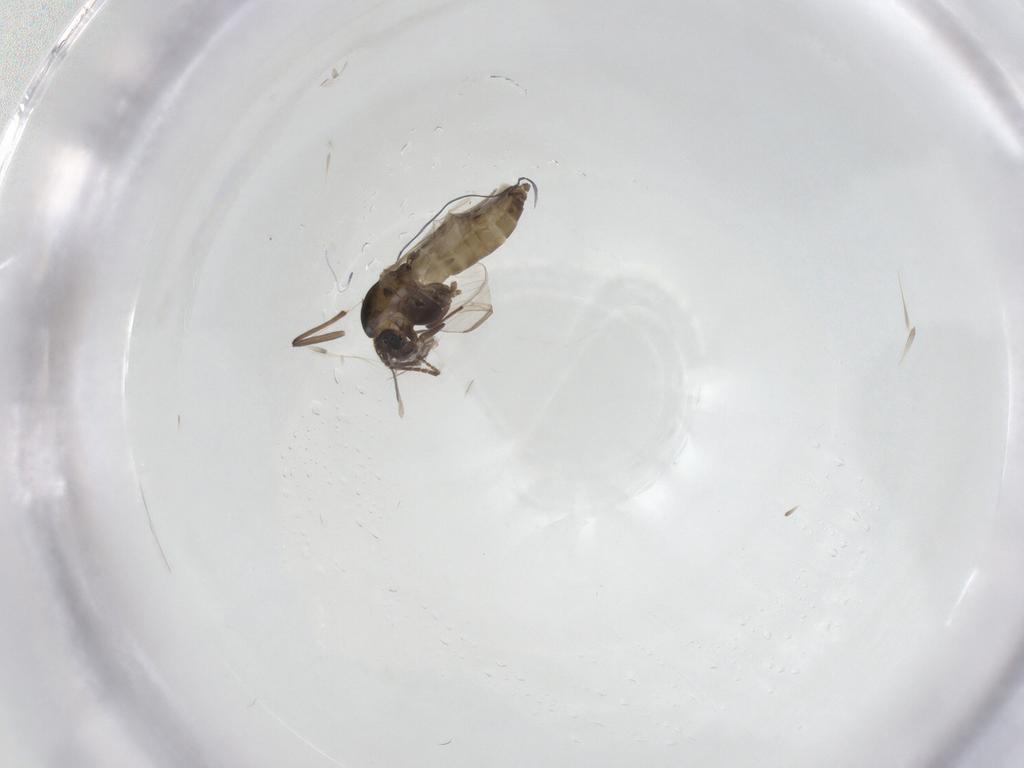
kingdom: Animalia
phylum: Arthropoda
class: Insecta
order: Diptera
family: Chironomidae
